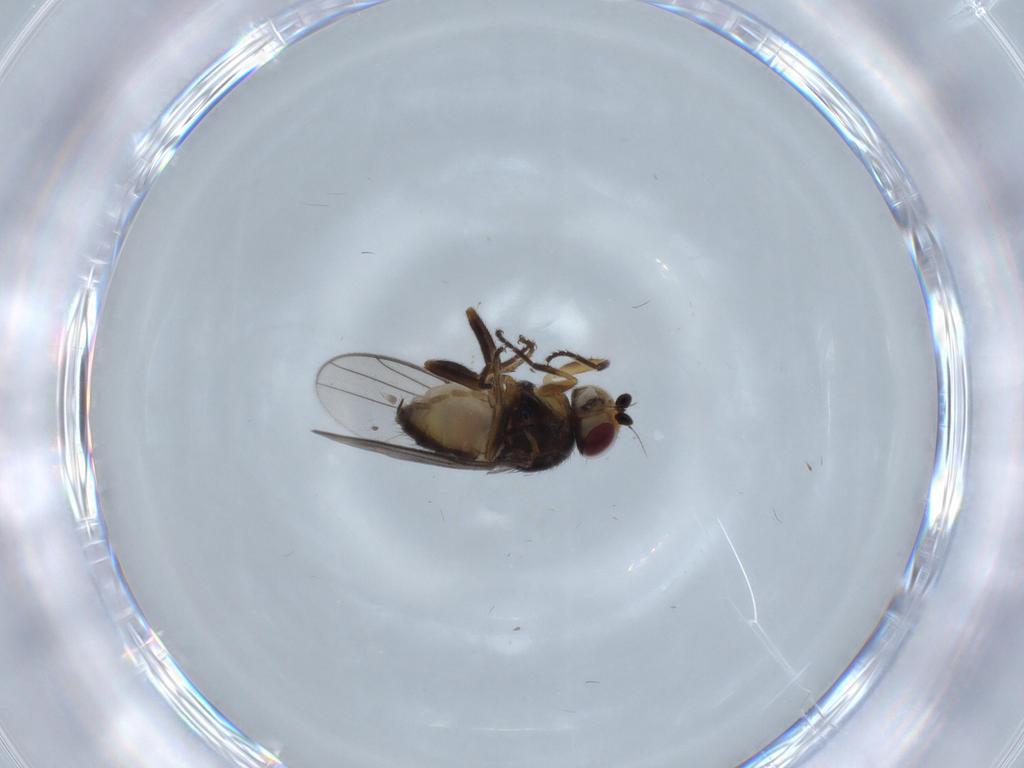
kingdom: Animalia
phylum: Arthropoda
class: Insecta
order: Diptera
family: Chloropidae
